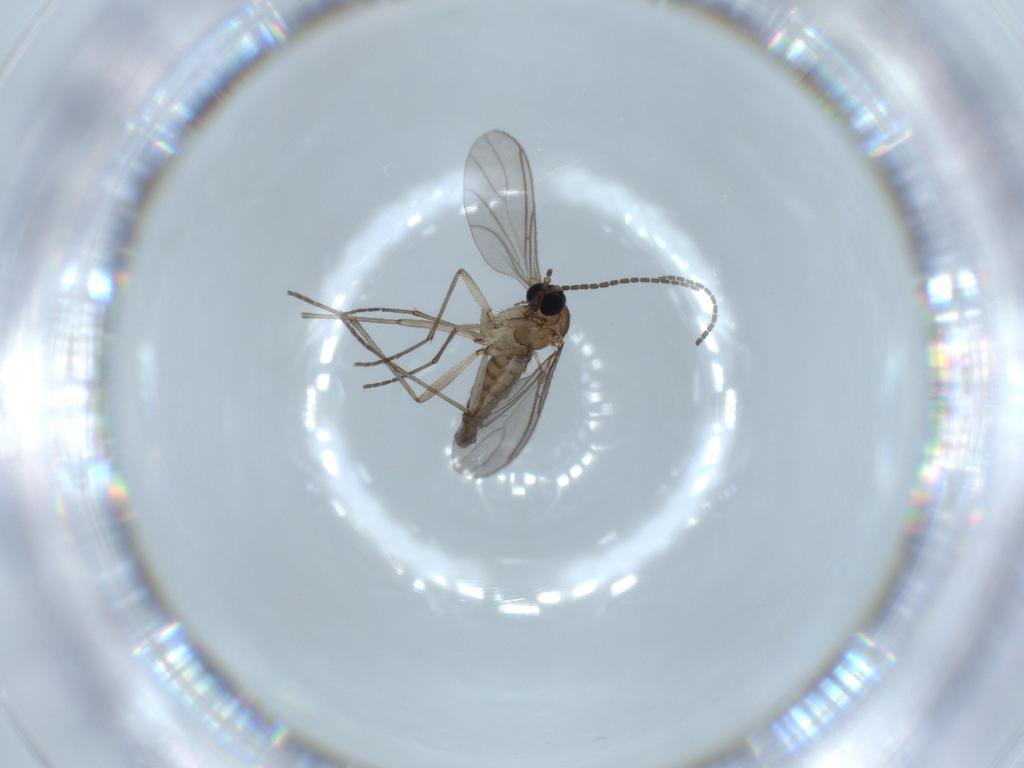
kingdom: Animalia
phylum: Arthropoda
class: Insecta
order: Diptera
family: Sciaridae
